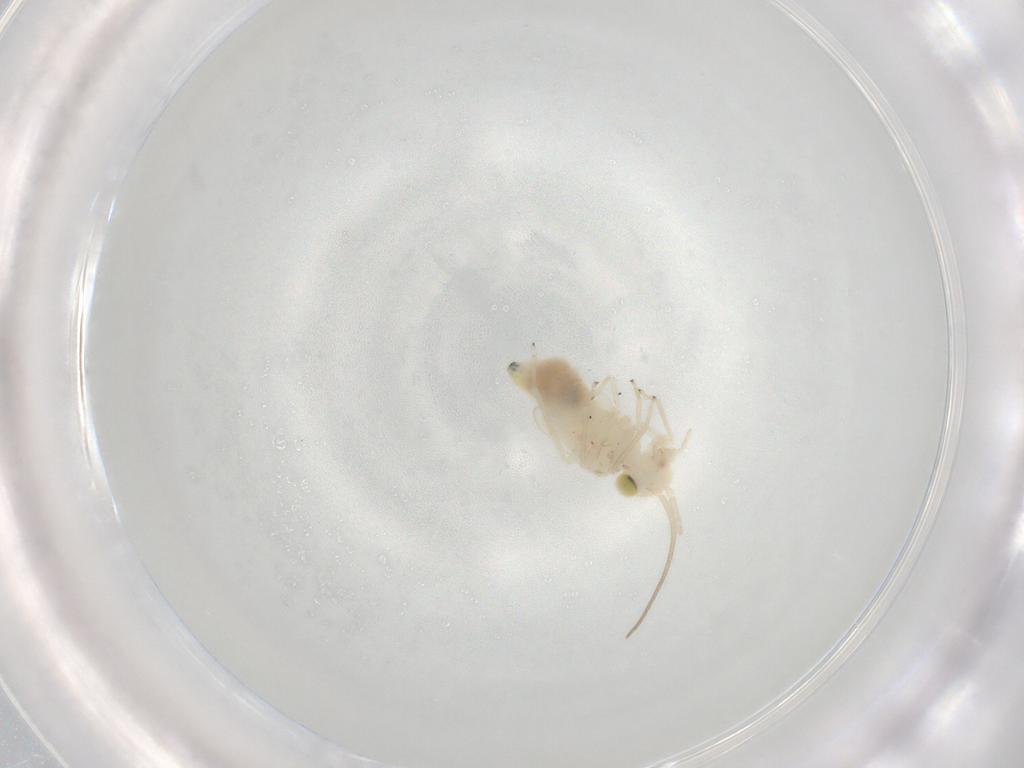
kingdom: Animalia
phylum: Arthropoda
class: Insecta
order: Psocodea
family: Caeciliusidae
